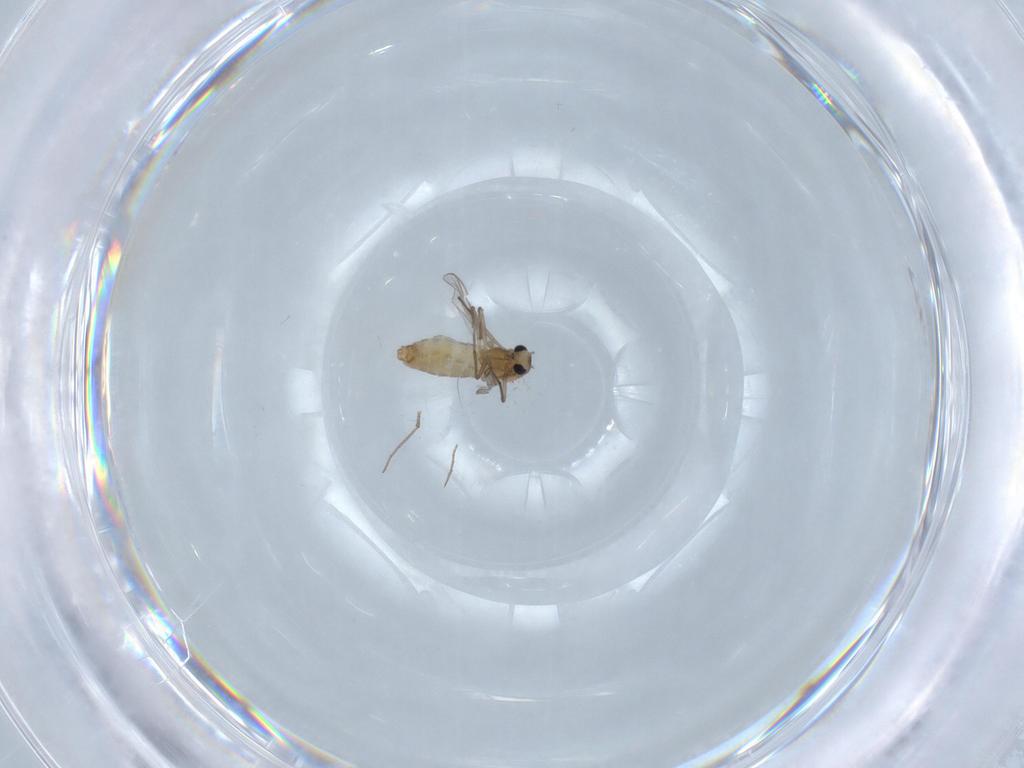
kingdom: Animalia
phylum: Arthropoda
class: Insecta
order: Diptera
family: Chironomidae
